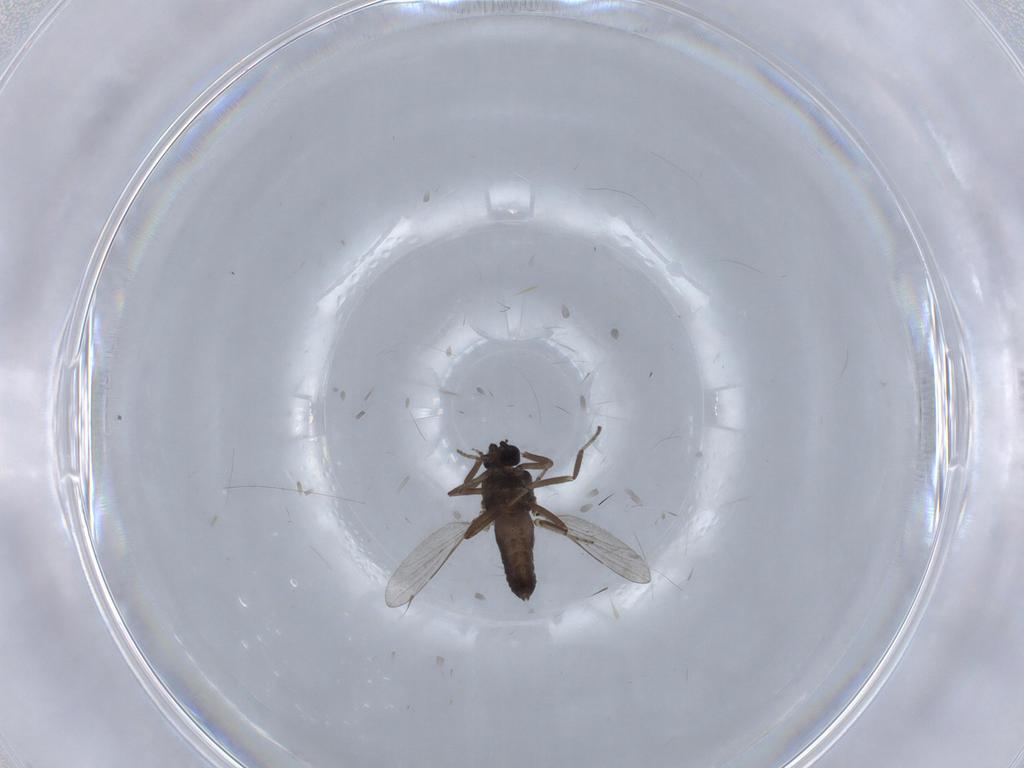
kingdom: Animalia
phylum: Arthropoda
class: Insecta
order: Diptera
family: Ceratopogonidae
